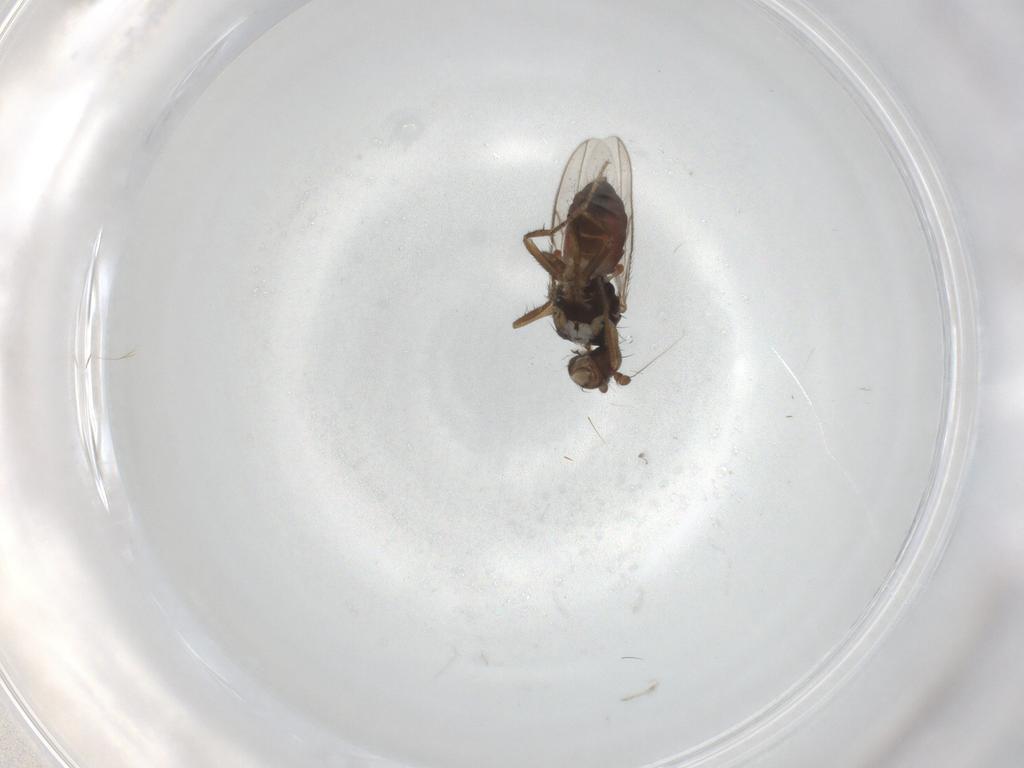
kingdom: Animalia
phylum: Arthropoda
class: Insecta
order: Diptera
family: Sphaeroceridae
